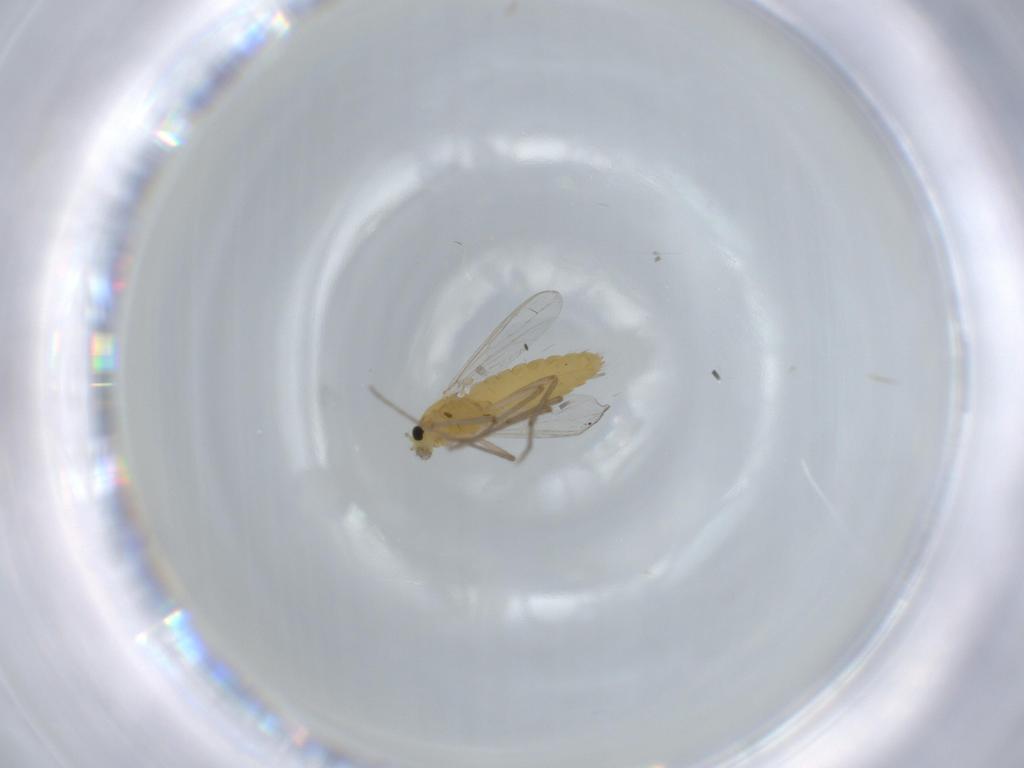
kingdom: Animalia
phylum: Arthropoda
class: Insecta
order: Diptera
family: Chironomidae
